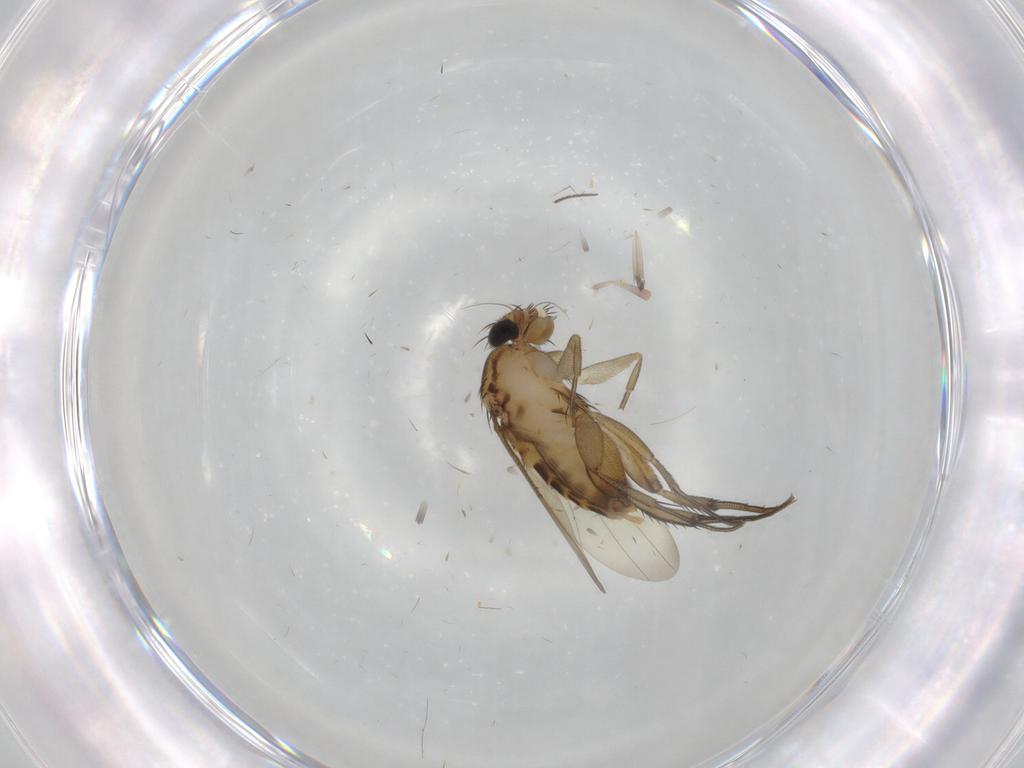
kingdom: Animalia
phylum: Arthropoda
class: Insecta
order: Diptera
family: Phoridae
